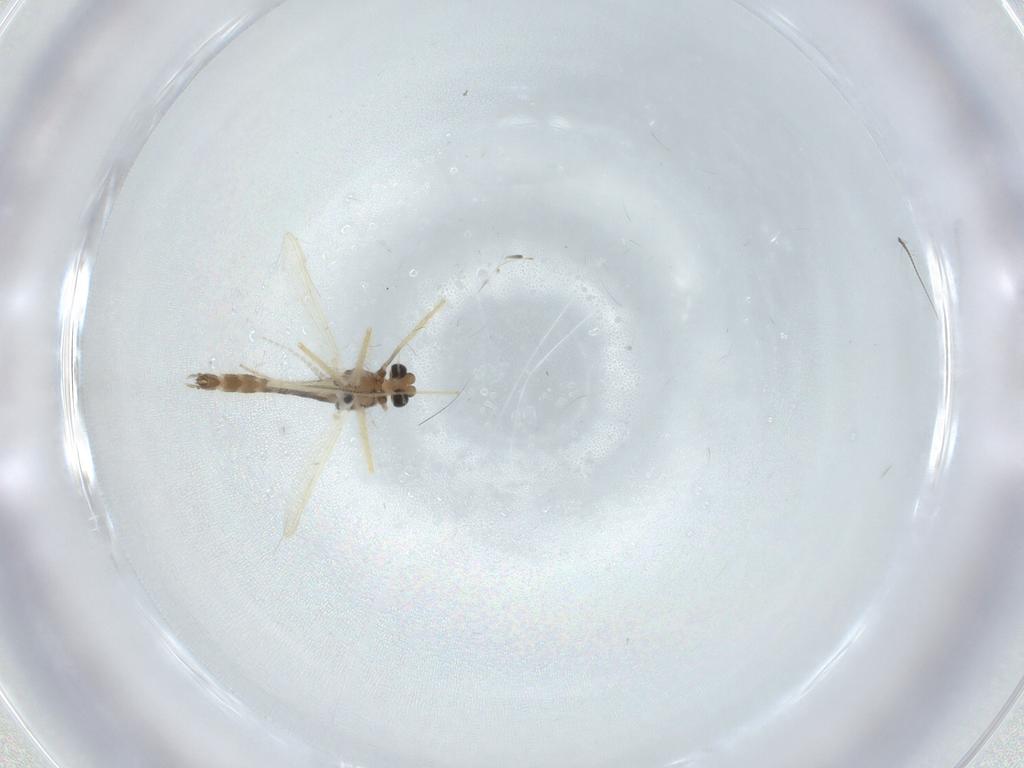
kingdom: Animalia
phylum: Arthropoda
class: Insecta
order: Diptera
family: Chironomidae
